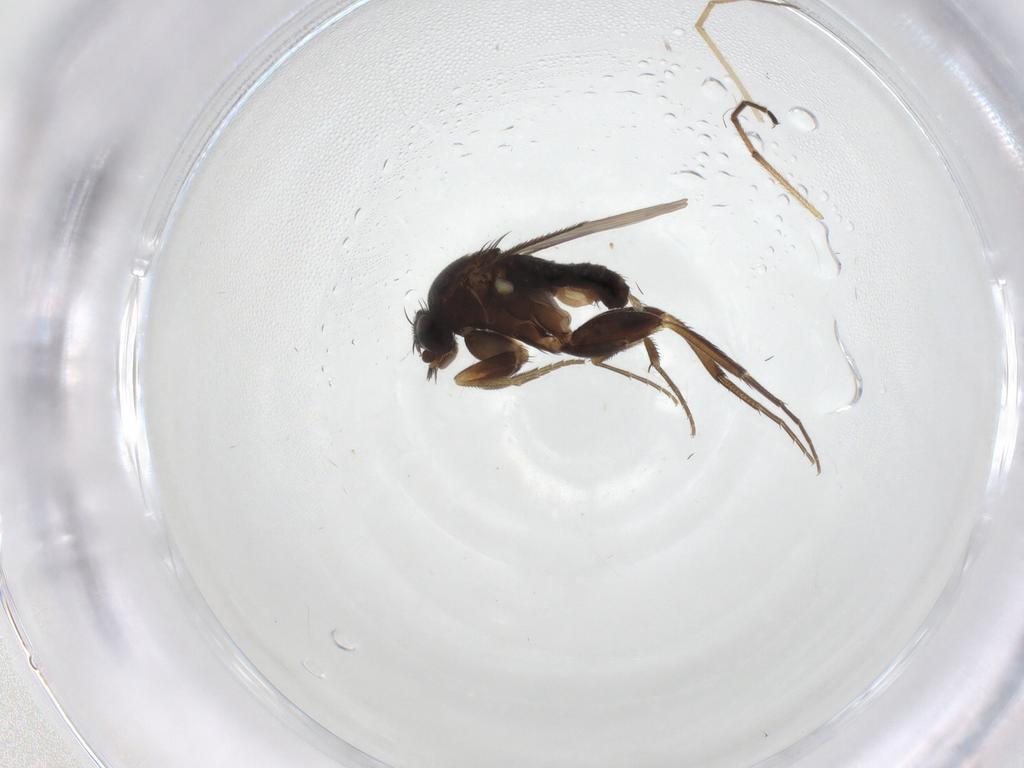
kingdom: Animalia
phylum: Arthropoda
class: Insecta
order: Diptera
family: Phoridae
